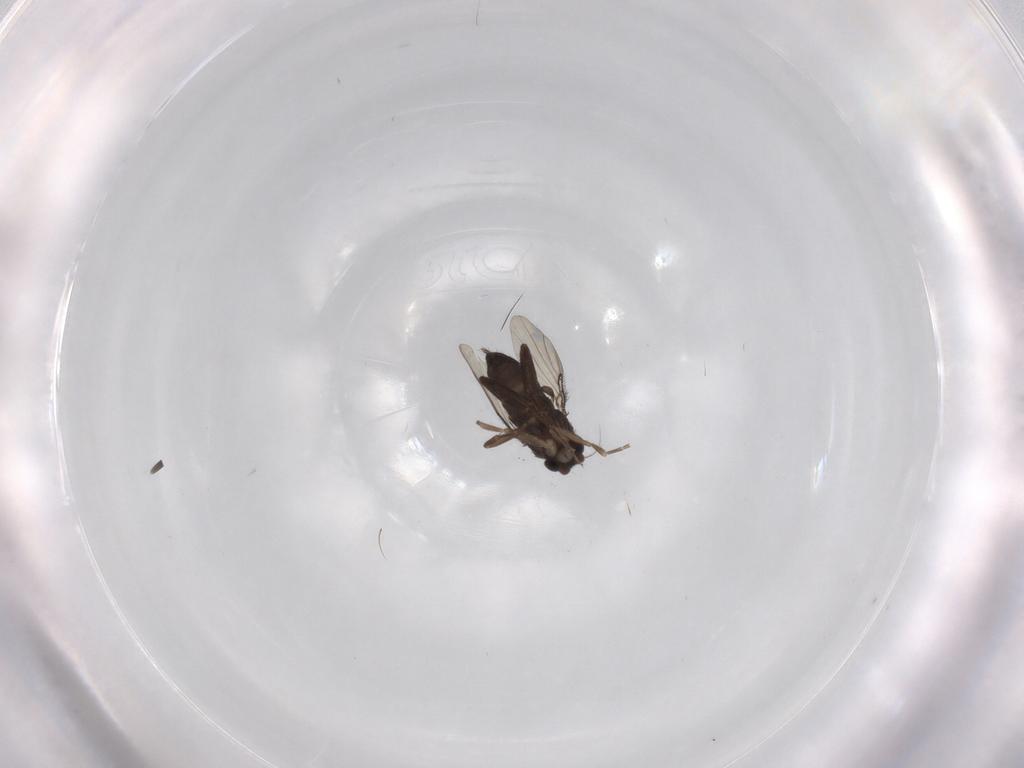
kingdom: Animalia
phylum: Arthropoda
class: Insecta
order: Diptera
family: Phoridae
